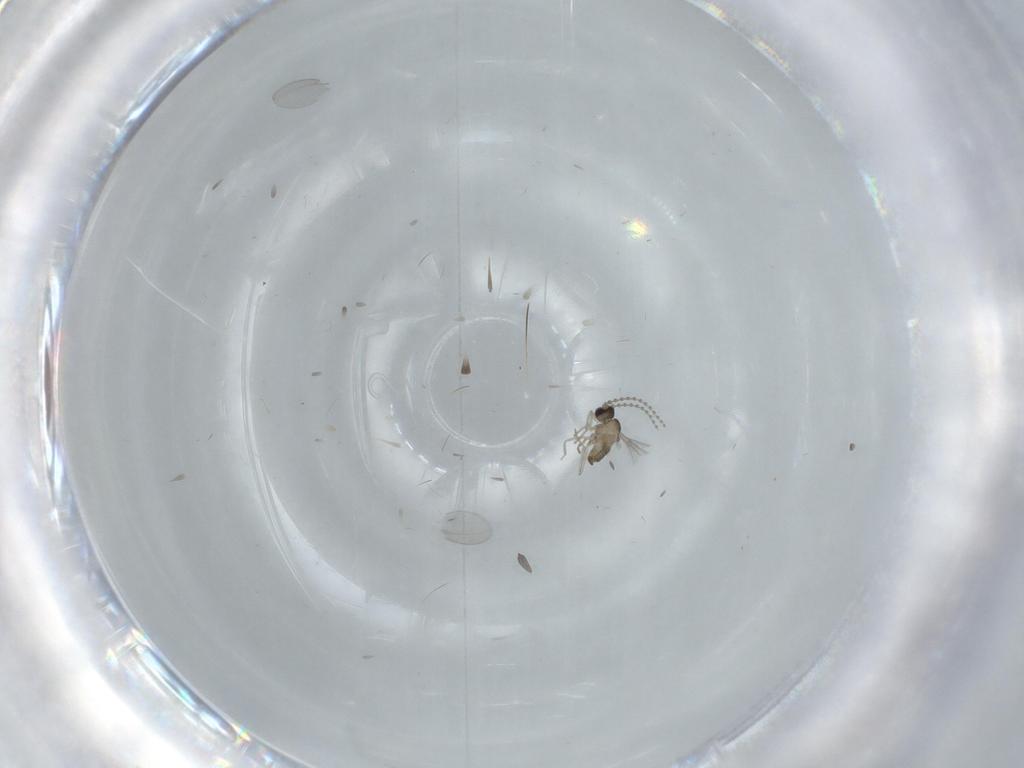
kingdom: Animalia
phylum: Arthropoda
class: Insecta
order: Diptera
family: Cecidomyiidae
